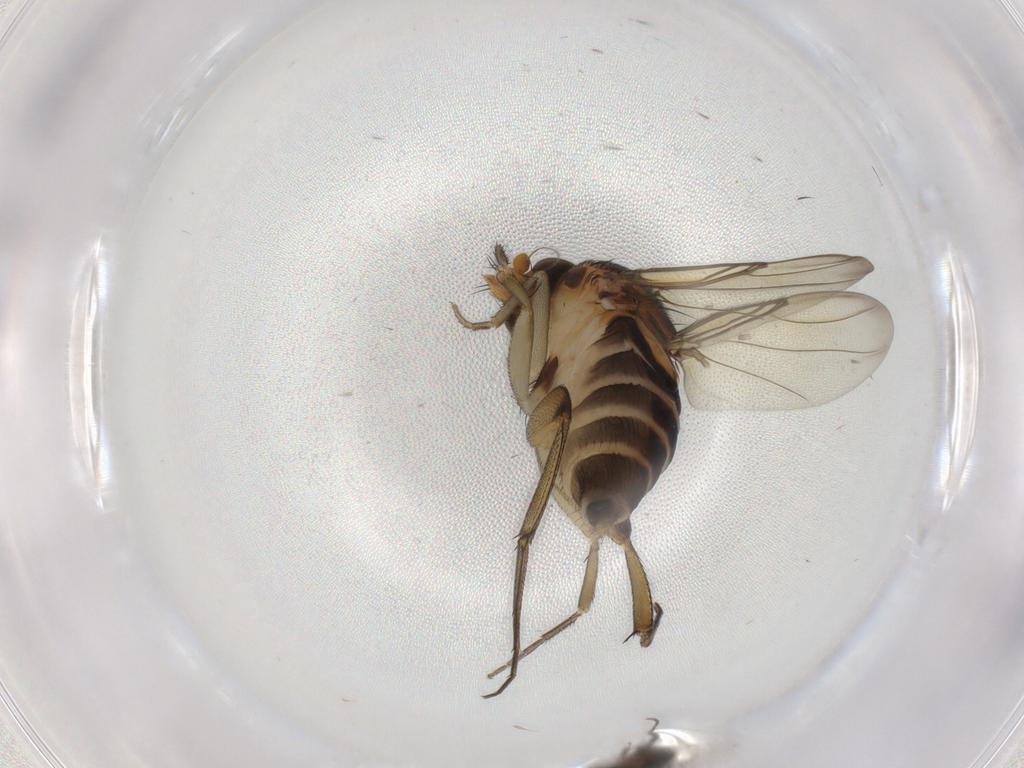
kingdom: Animalia
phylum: Arthropoda
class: Insecta
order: Diptera
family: Phoridae
